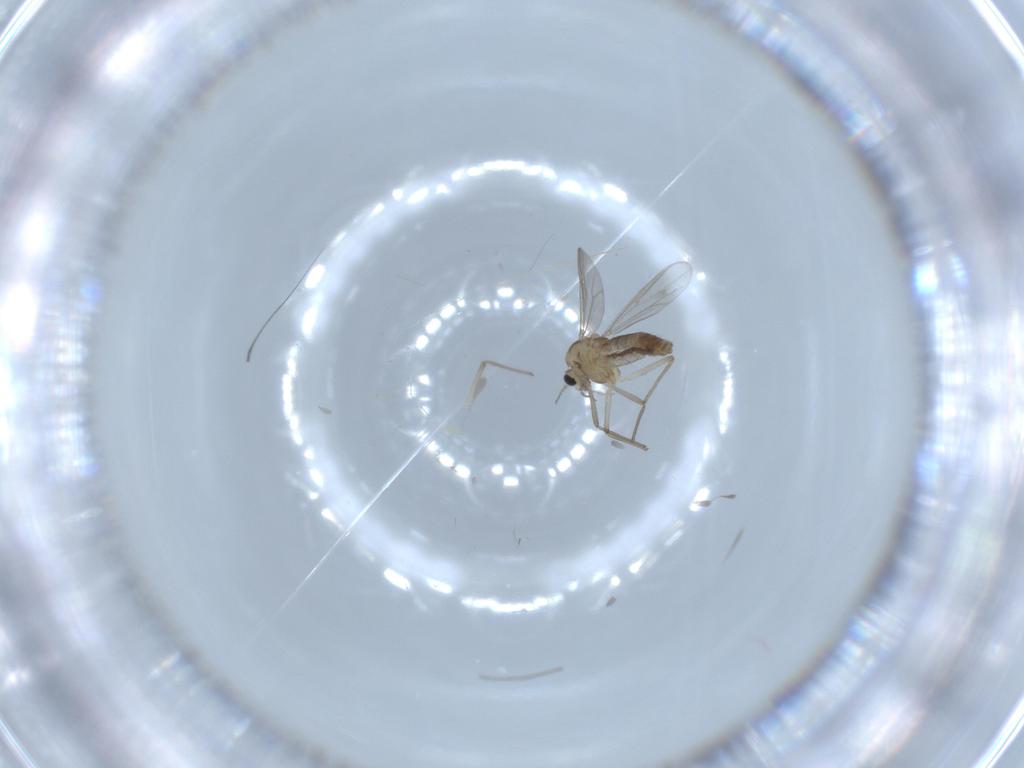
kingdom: Animalia
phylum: Arthropoda
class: Insecta
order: Diptera
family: Chironomidae
